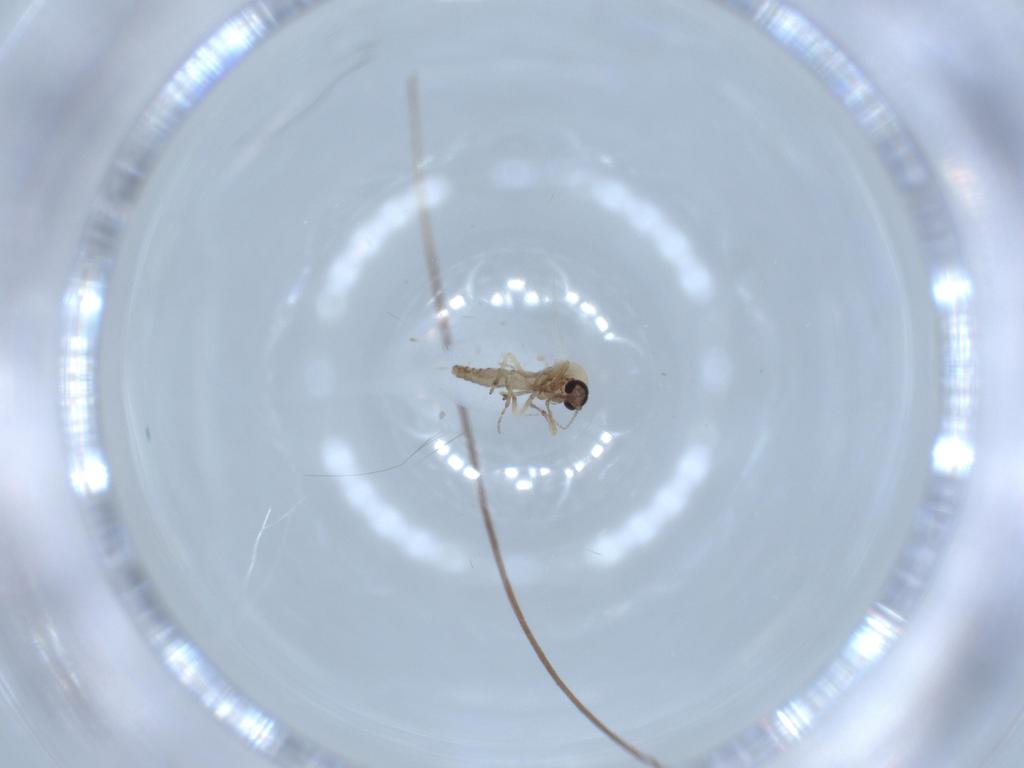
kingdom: Animalia
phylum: Arthropoda
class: Insecta
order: Diptera
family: Ceratopogonidae
